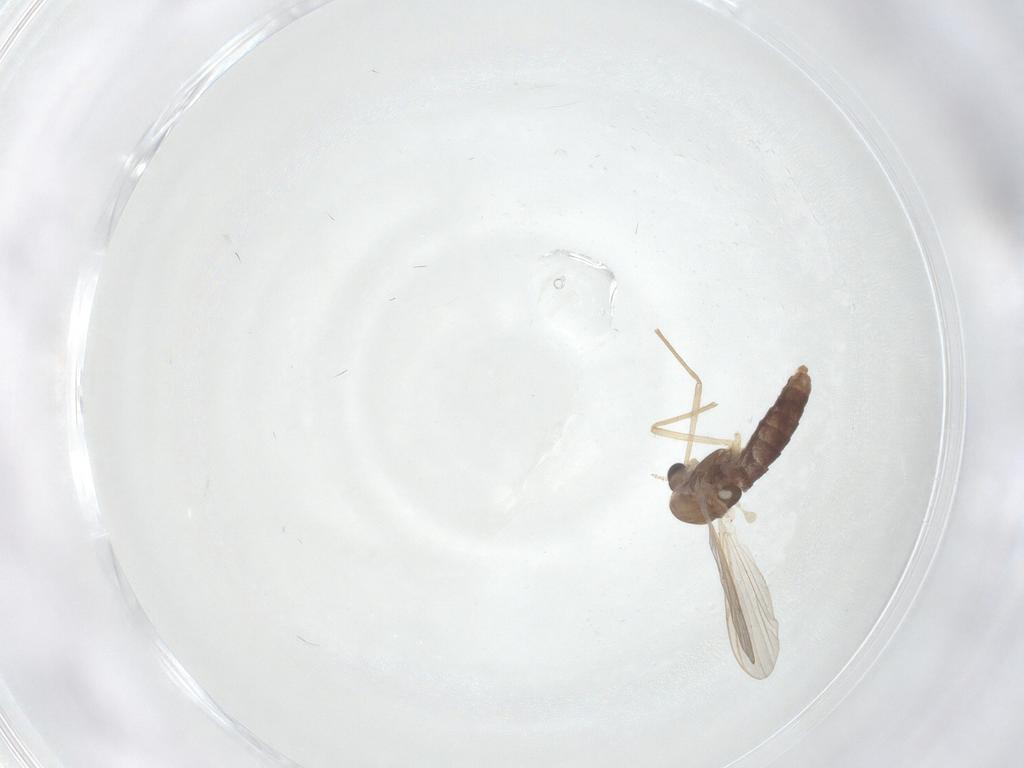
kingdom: Animalia
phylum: Arthropoda
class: Insecta
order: Diptera
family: Chironomidae
